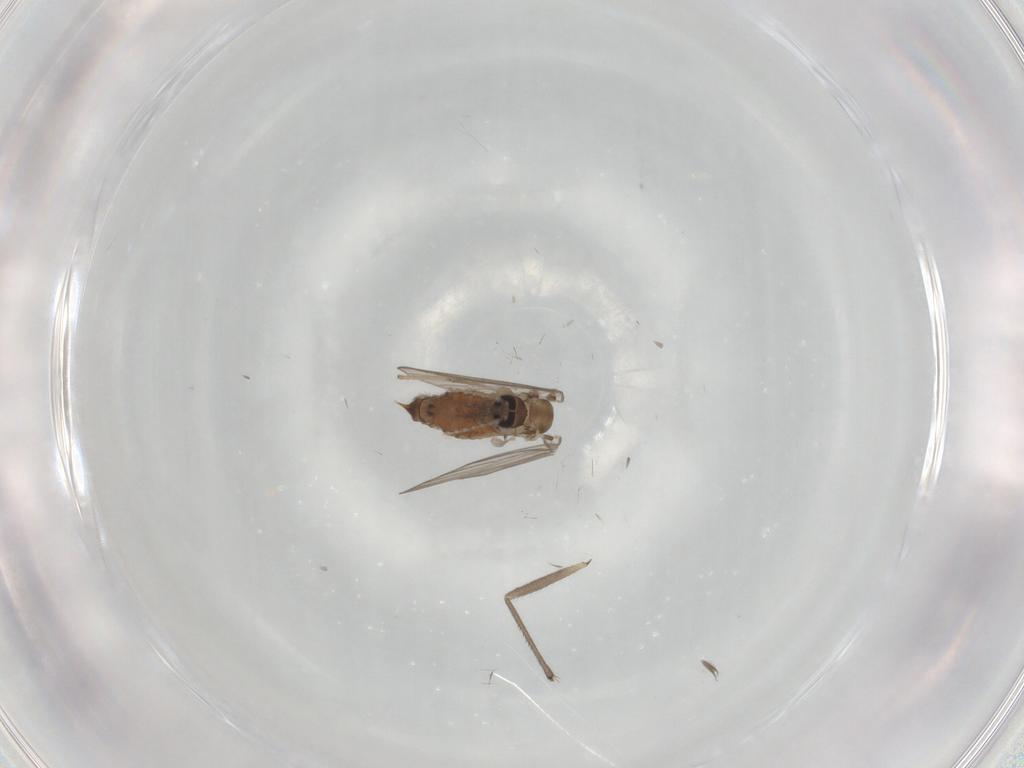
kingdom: Animalia
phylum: Arthropoda
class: Insecta
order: Diptera
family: Psychodidae
